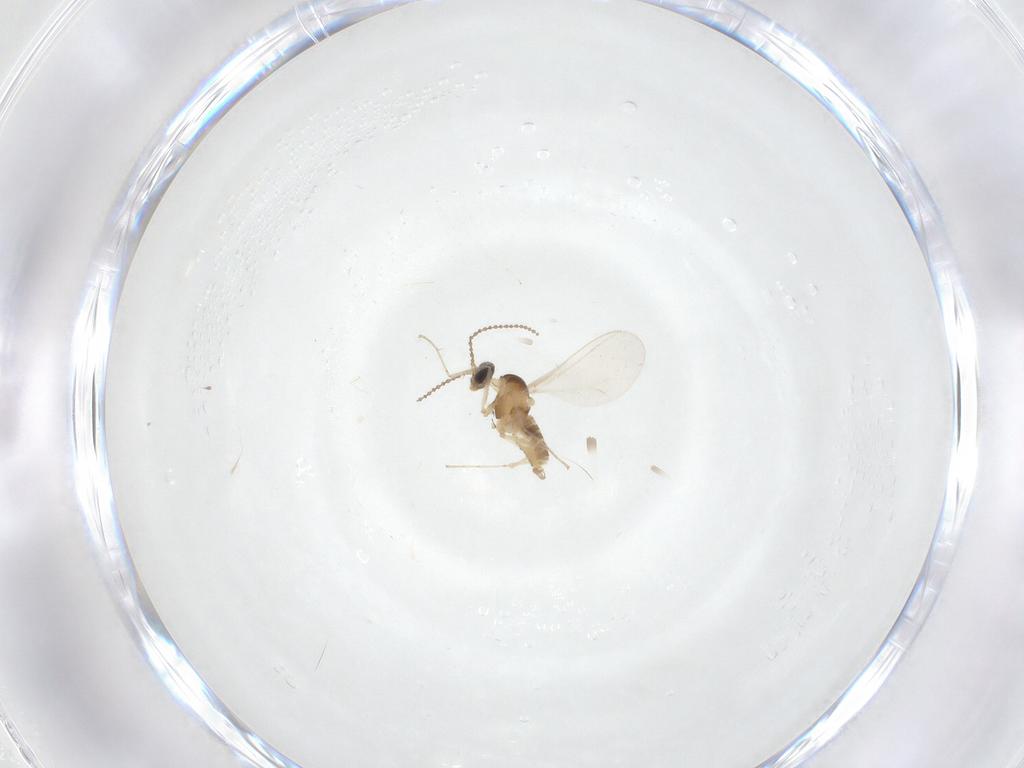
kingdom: Animalia
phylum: Arthropoda
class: Insecta
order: Diptera
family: Cecidomyiidae
